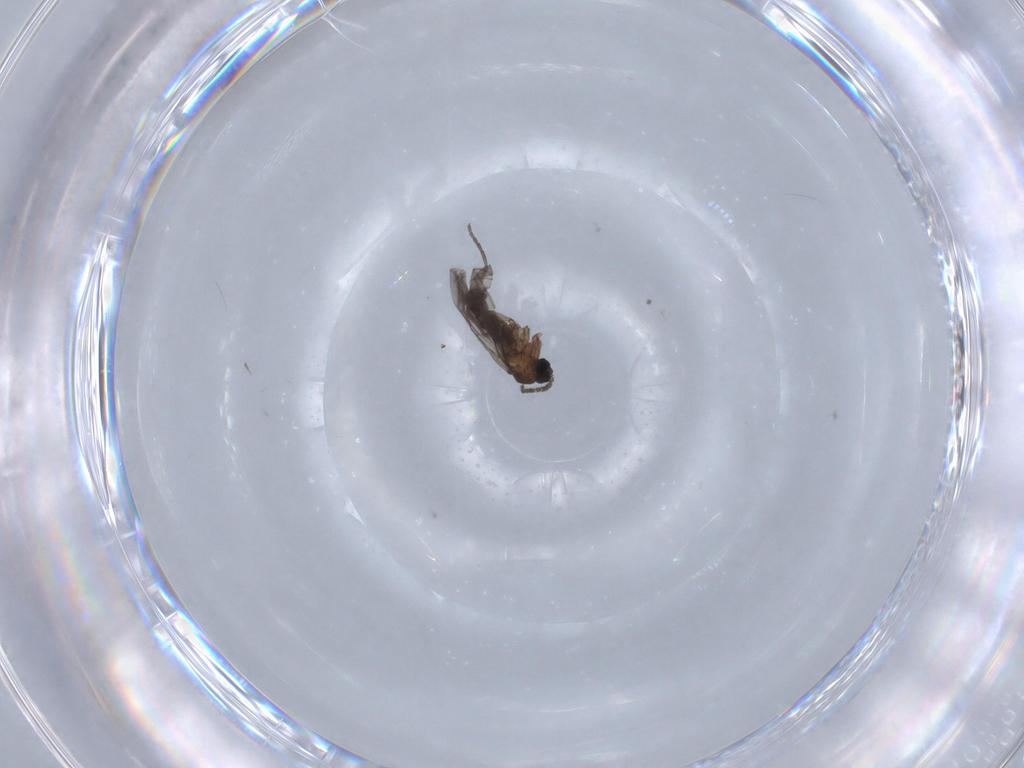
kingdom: Animalia
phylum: Arthropoda
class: Insecta
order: Diptera
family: Sciaridae
